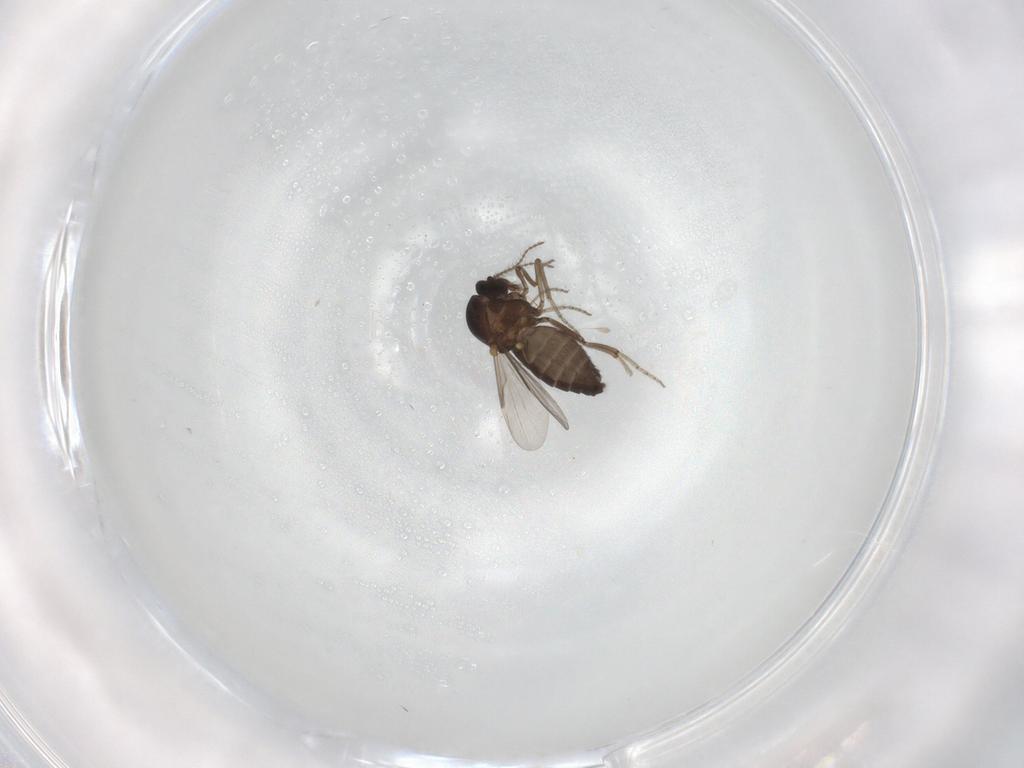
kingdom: Animalia
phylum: Arthropoda
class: Insecta
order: Diptera
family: Ceratopogonidae
